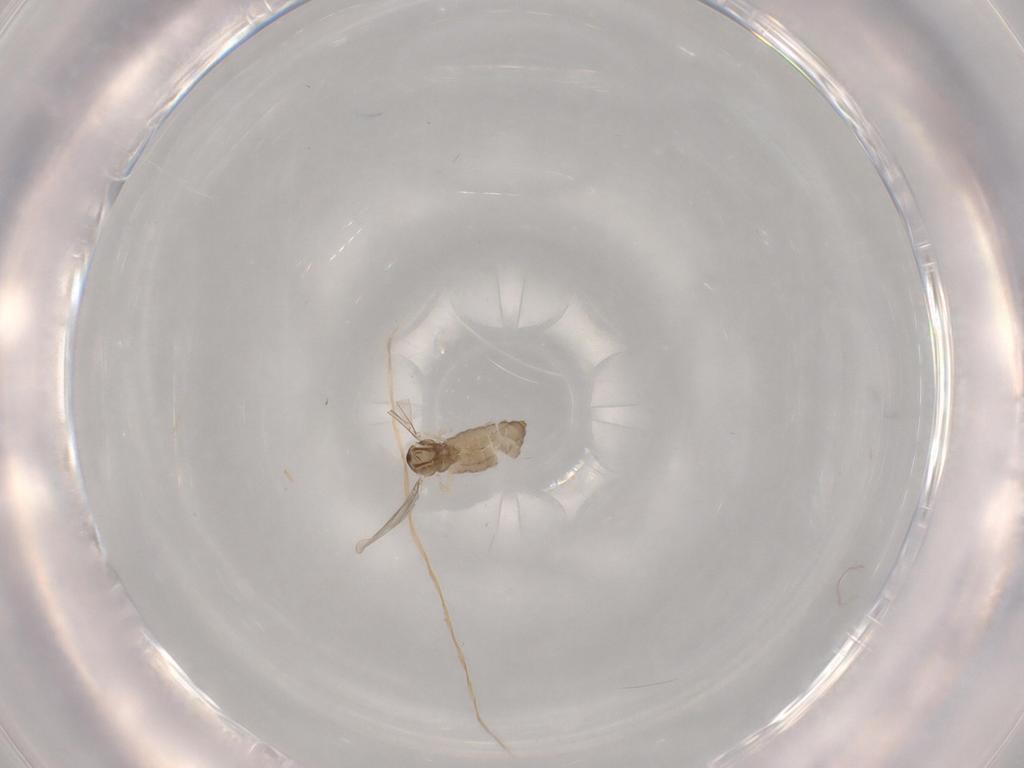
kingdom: Animalia
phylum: Arthropoda
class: Insecta
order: Diptera
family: Cecidomyiidae
